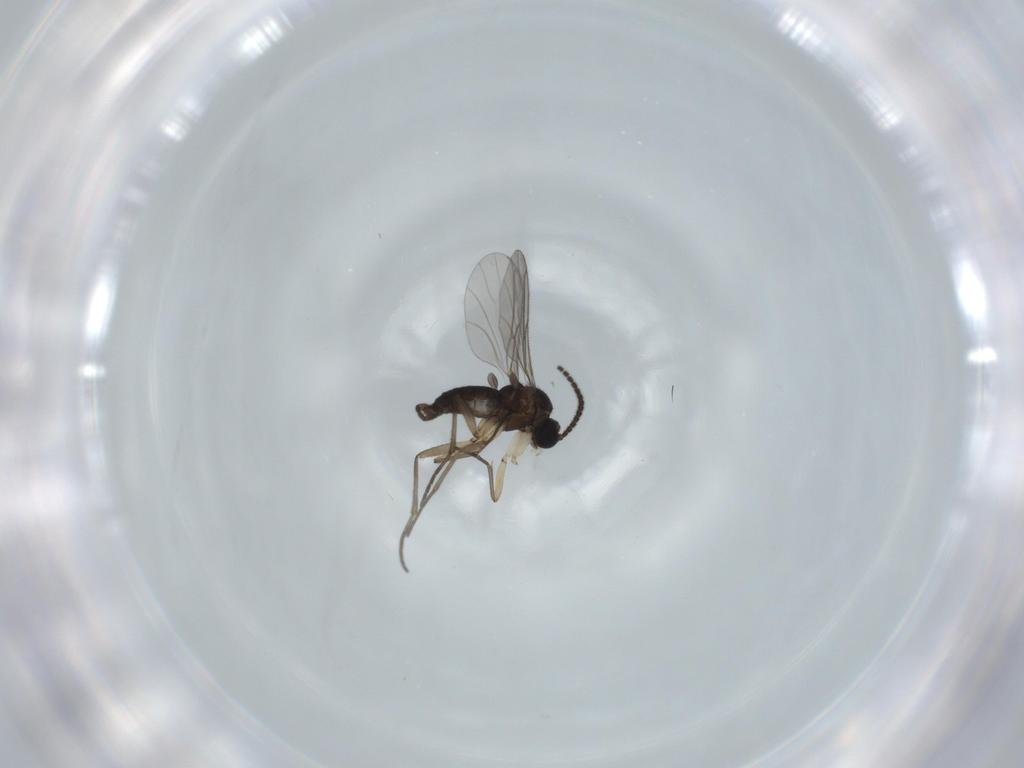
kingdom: Animalia
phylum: Arthropoda
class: Insecta
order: Diptera
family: Sciaridae
